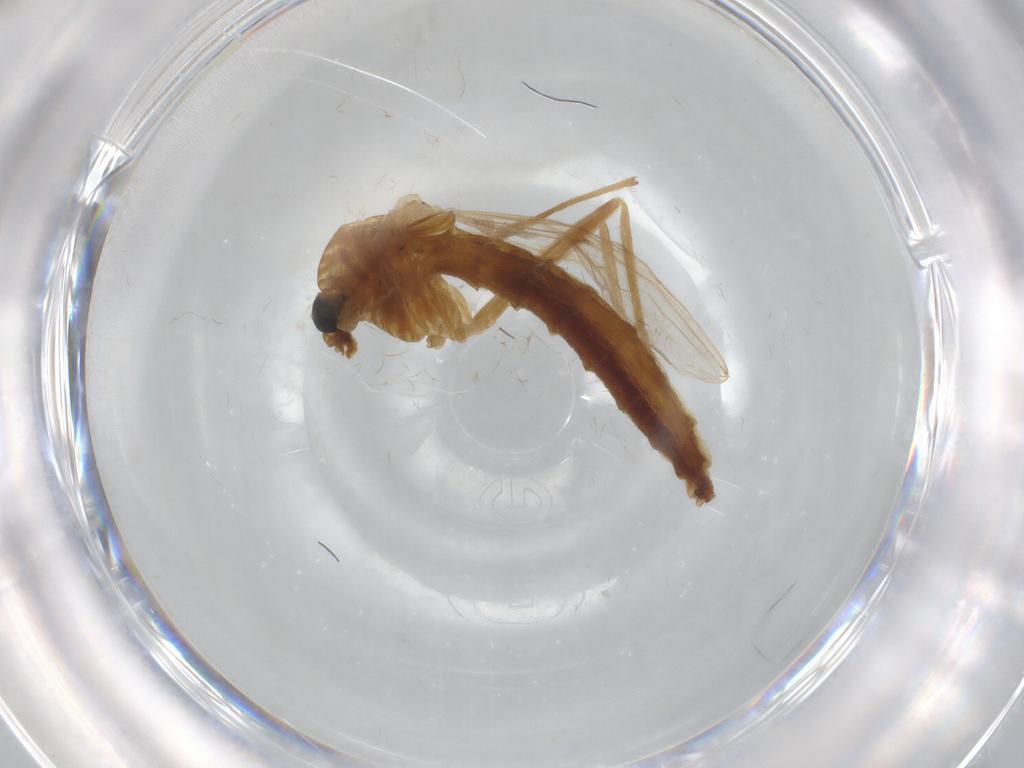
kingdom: Animalia
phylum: Arthropoda
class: Insecta
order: Diptera
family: Chironomidae
